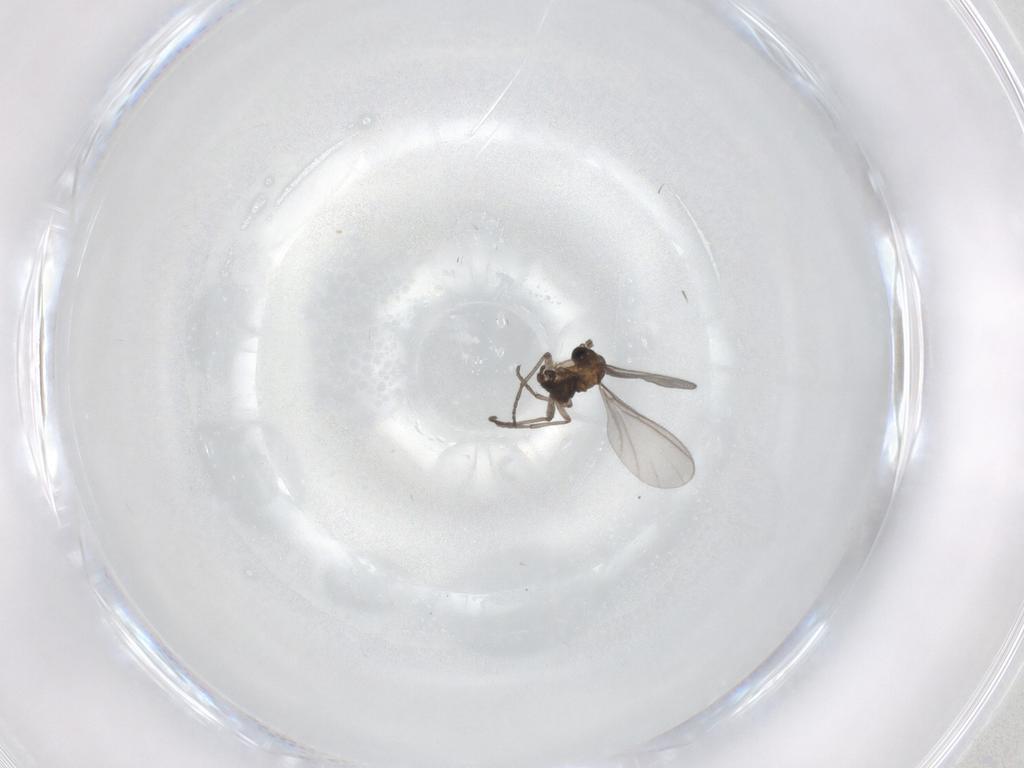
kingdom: Animalia
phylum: Arthropoda
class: Insecta
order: Diptera
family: Sciaridae
